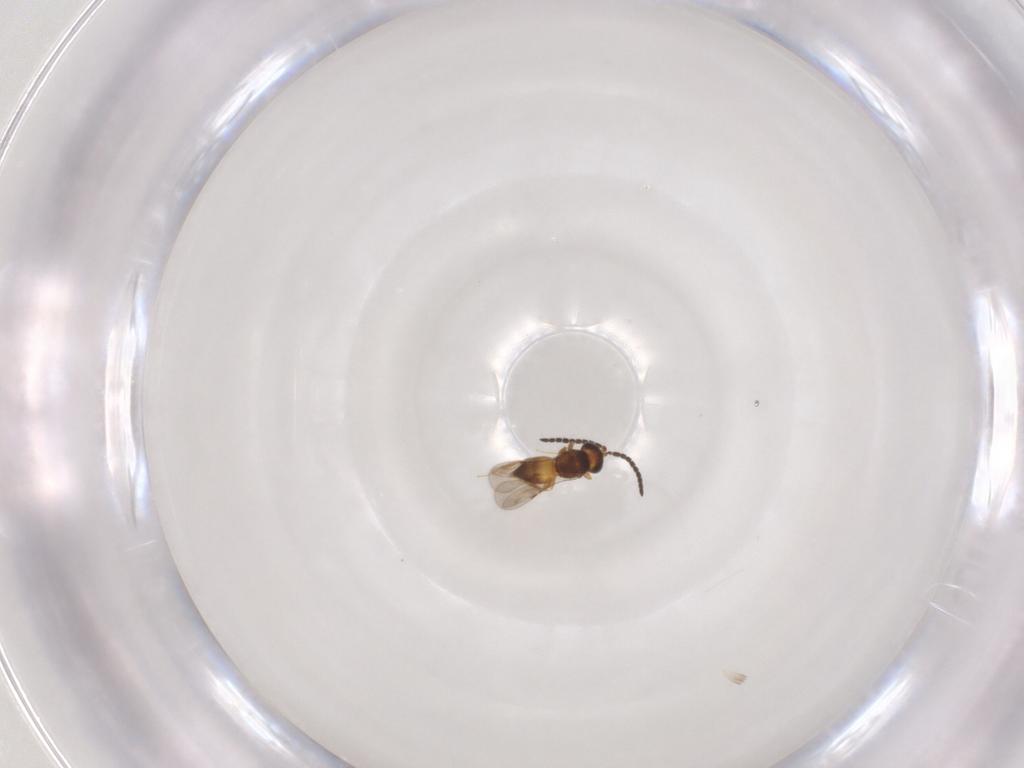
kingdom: Animalia
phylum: Arthropoda
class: Insecta
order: Hymenoptera
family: Ceraphronidae
